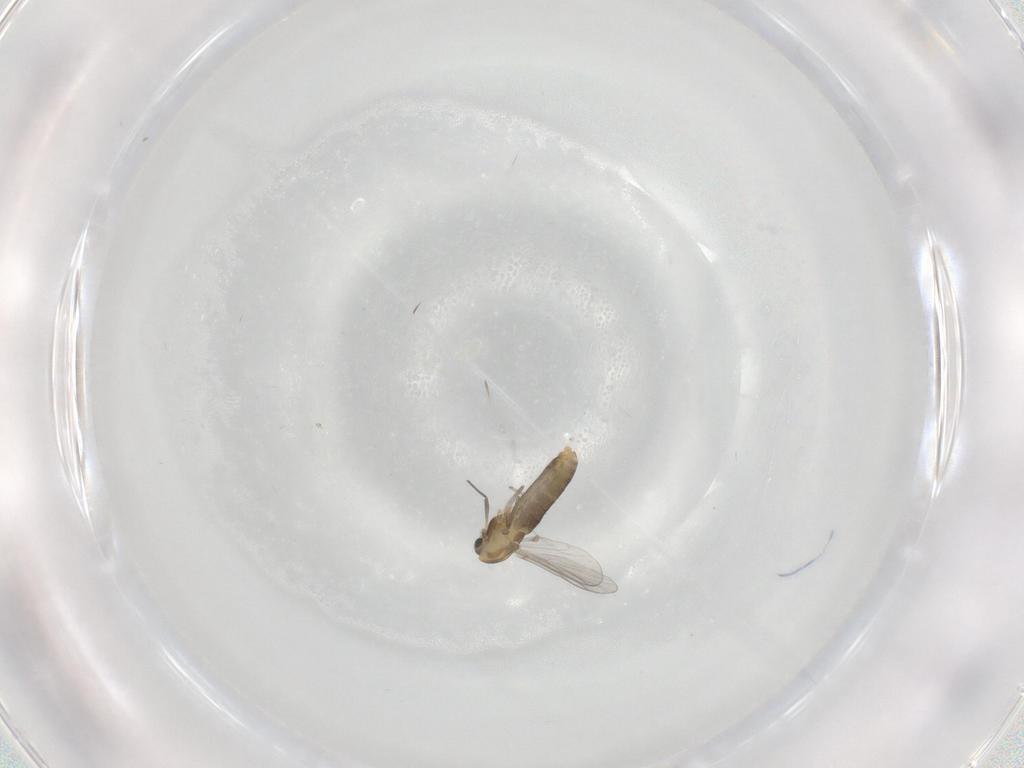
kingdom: Animalia
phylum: Arthropoda
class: Insecta
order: Diptera
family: Chironomidae
